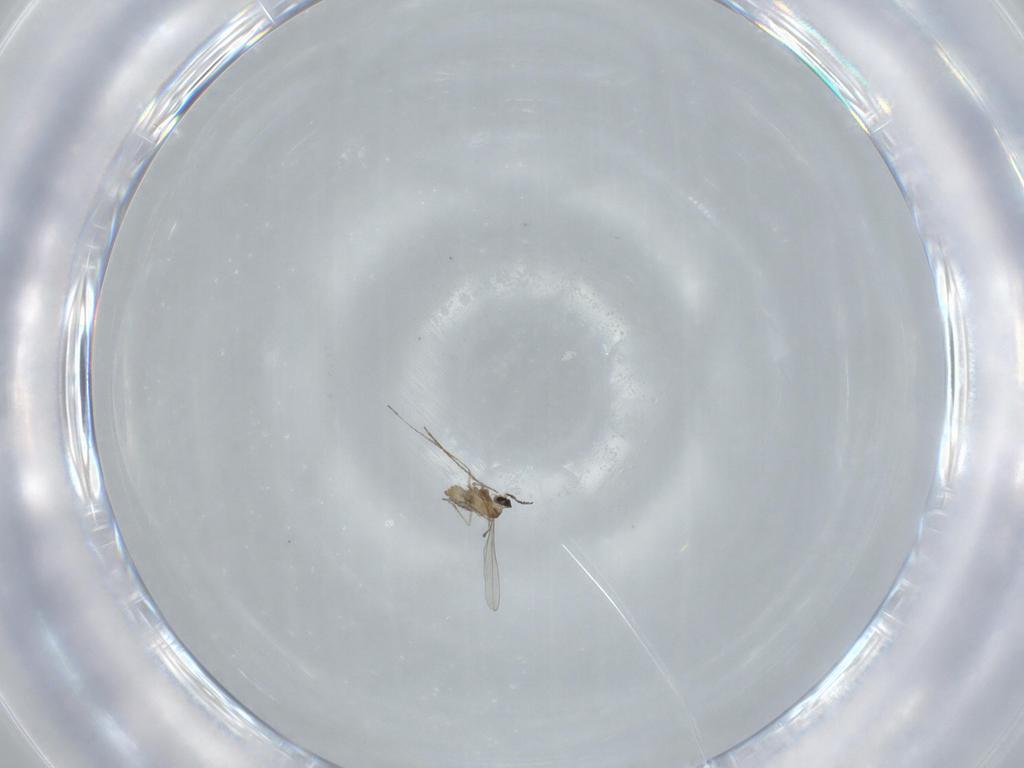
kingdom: Animalia
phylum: Arthropoda
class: Insecta
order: Diptera
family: Cecidomyiidae
